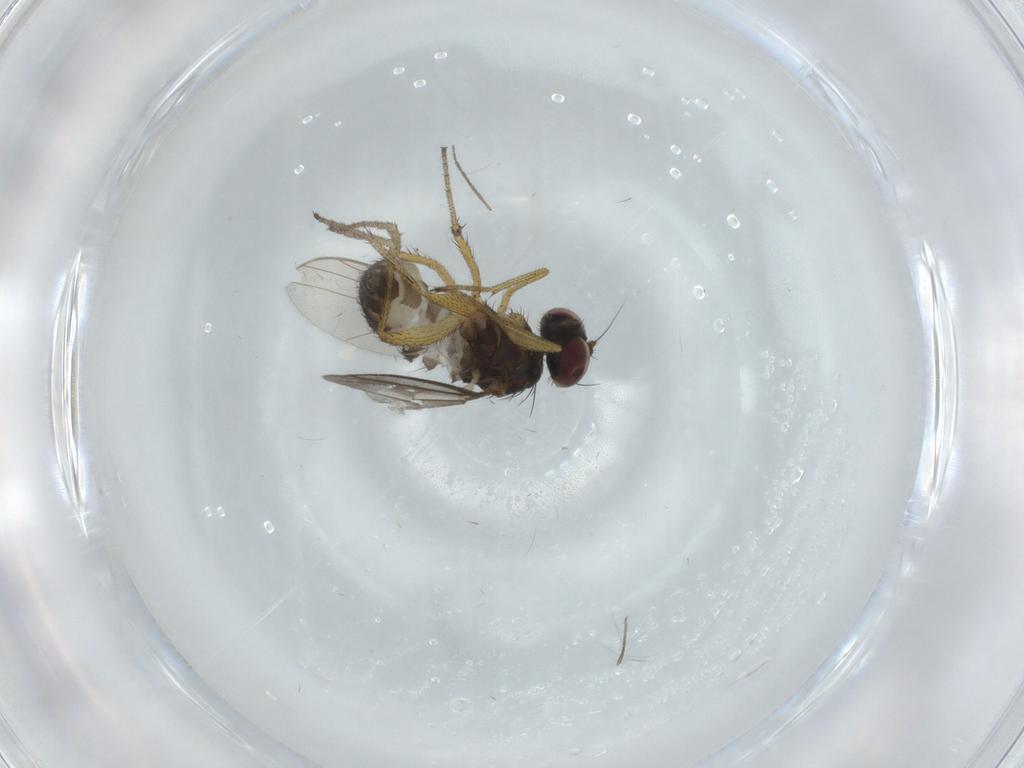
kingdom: Animalia
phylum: Arthropoda
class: Insecta
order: Diptera
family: Dolichopodidae
